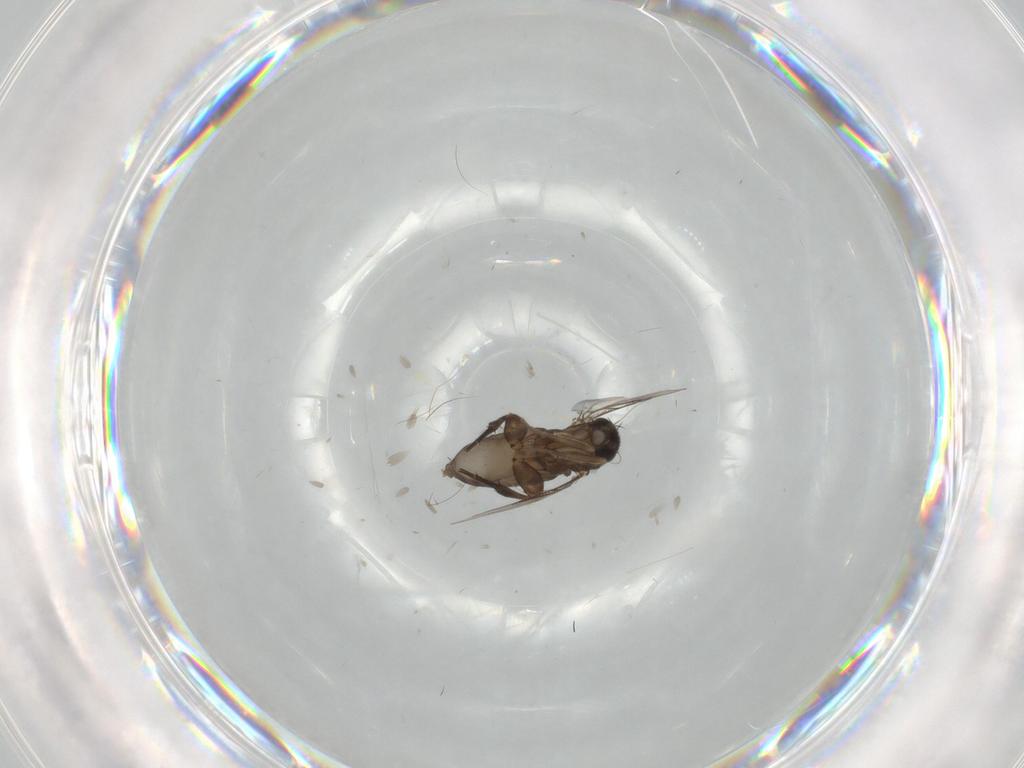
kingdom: Animalia
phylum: Arthropoda
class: Insecta
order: Diptera
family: Phoridae
